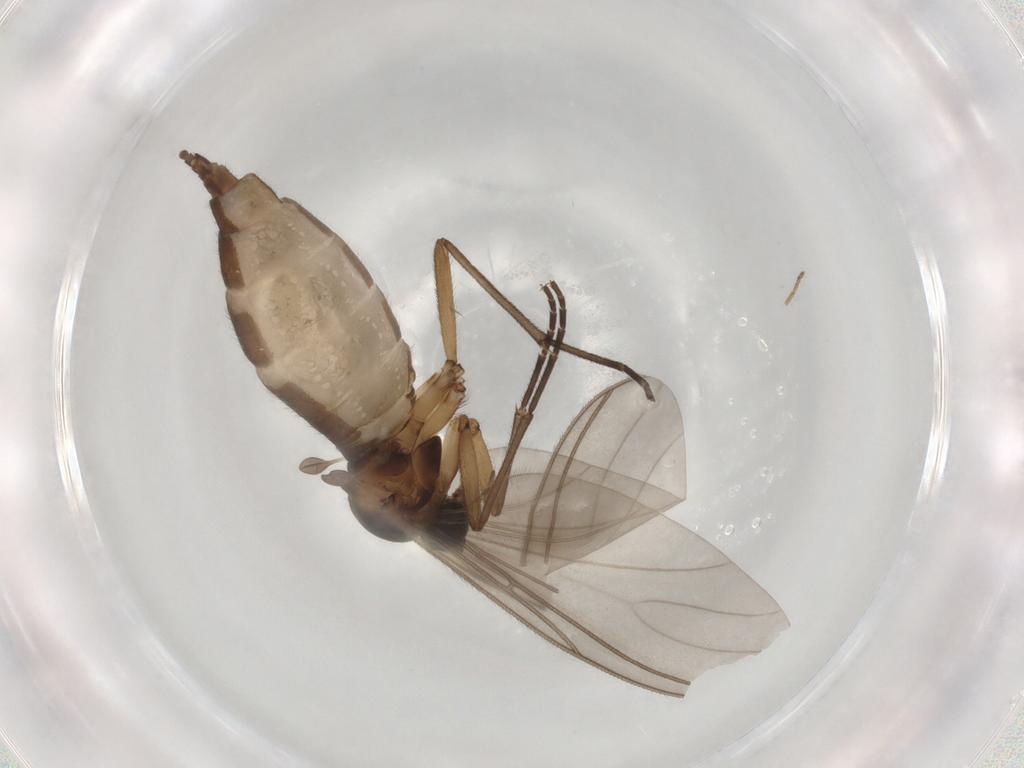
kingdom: Animalia
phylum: Arthropoda
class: Insecta
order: Diptera
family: Sciaridae
